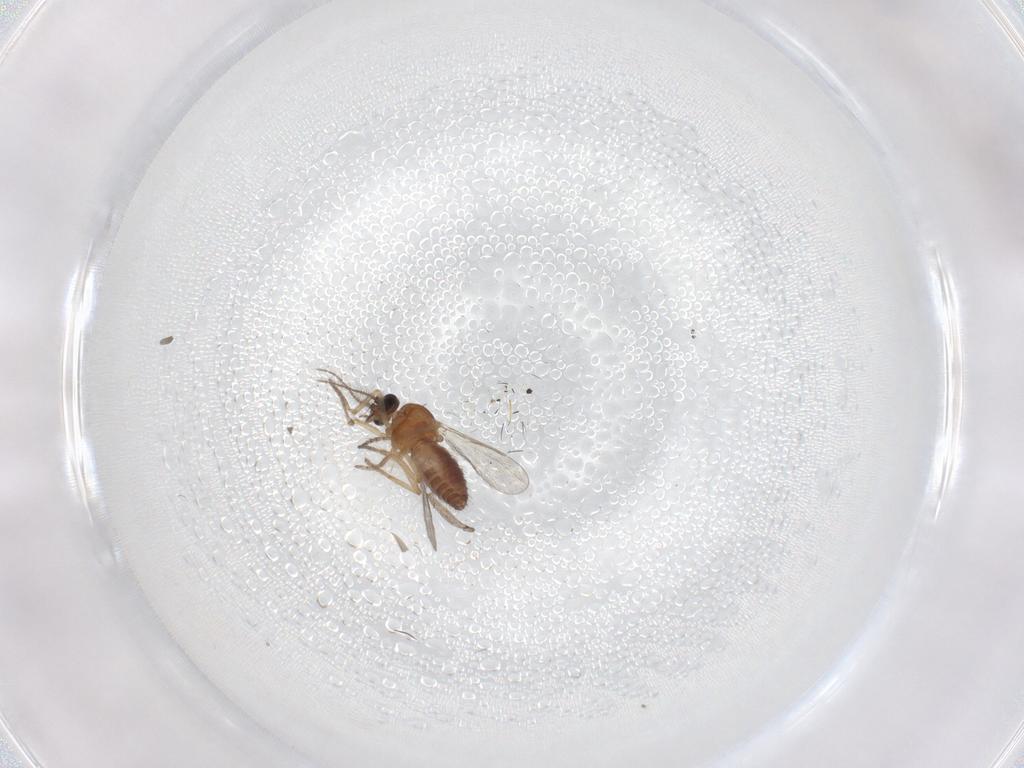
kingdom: Animalia
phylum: Arthropoda
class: Insecta
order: Diptera
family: Ceratopogonidae
